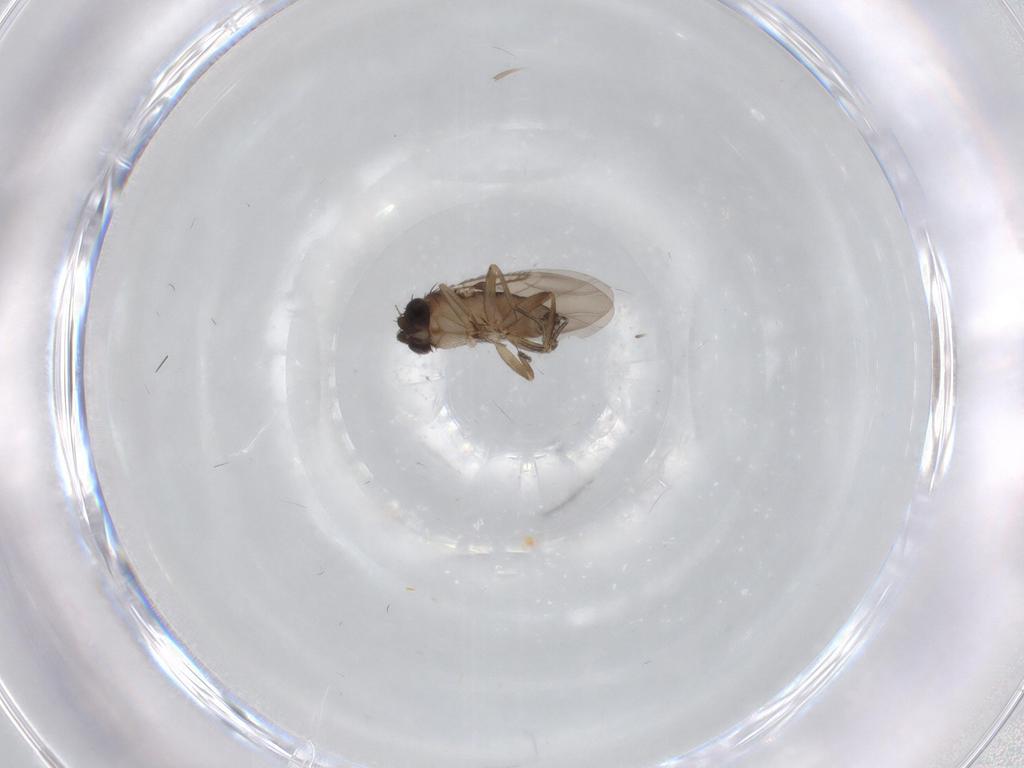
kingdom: Animalia
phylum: Arthropoda
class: Insecta
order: Diptera
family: Phoridae
